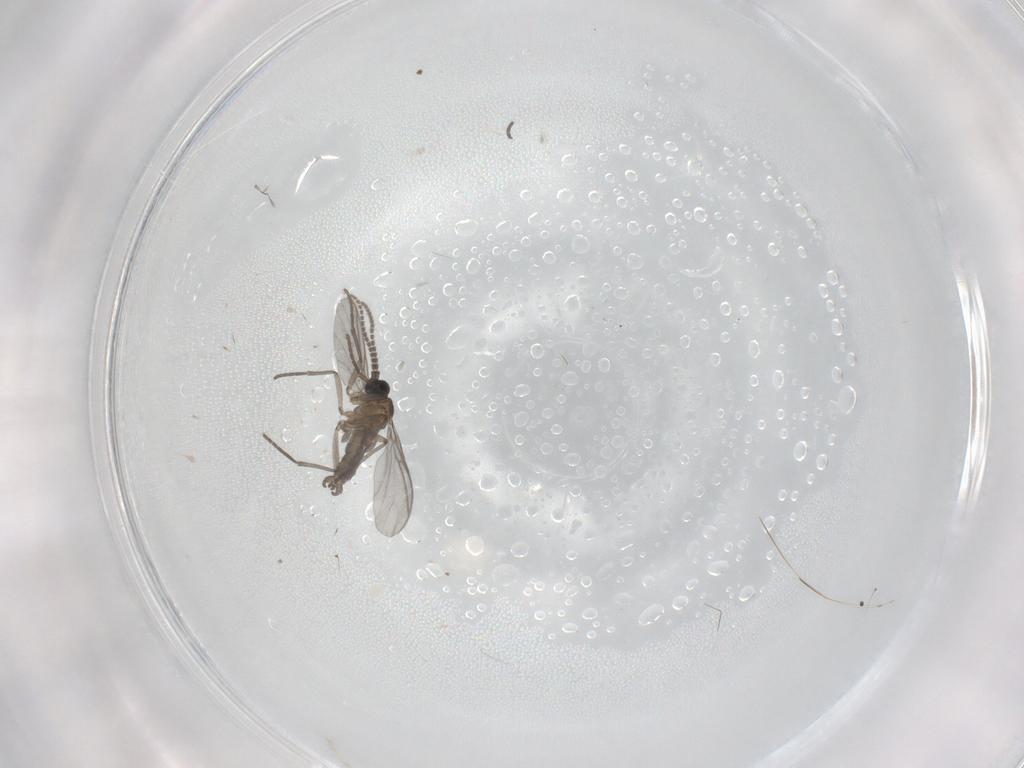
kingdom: Animalia
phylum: Arthropoda
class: Insecta
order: Diptera
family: Sciaridae
